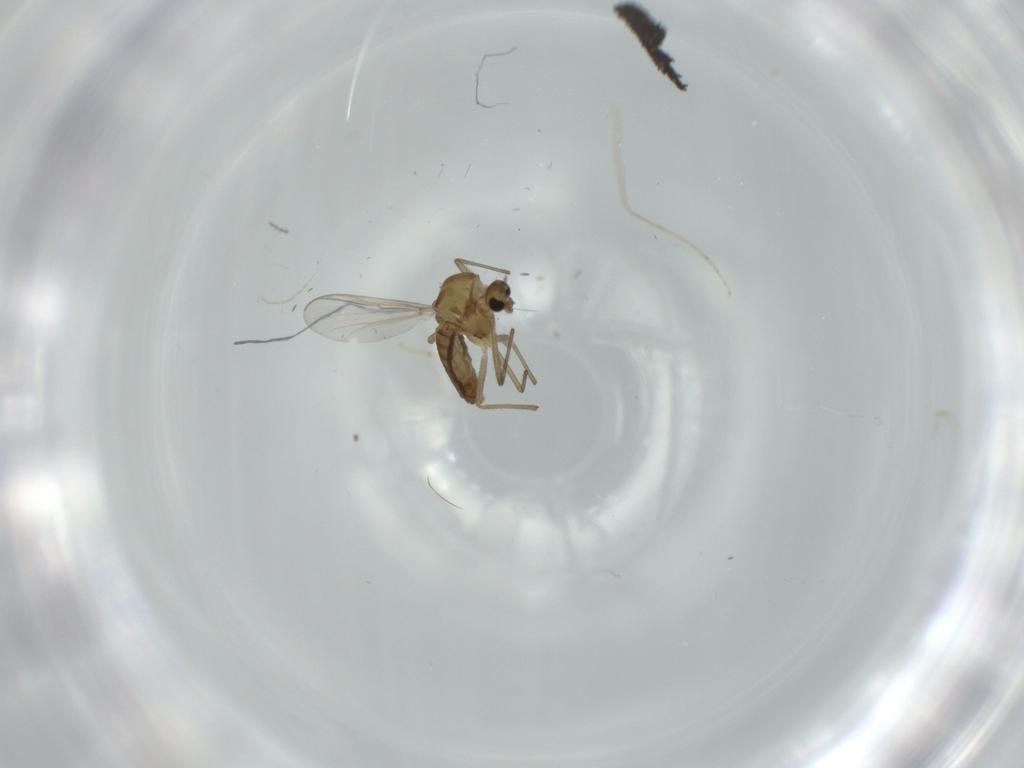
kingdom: Animalia
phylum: Arthropoda
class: Insecta
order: Diptera
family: Chironomidae
